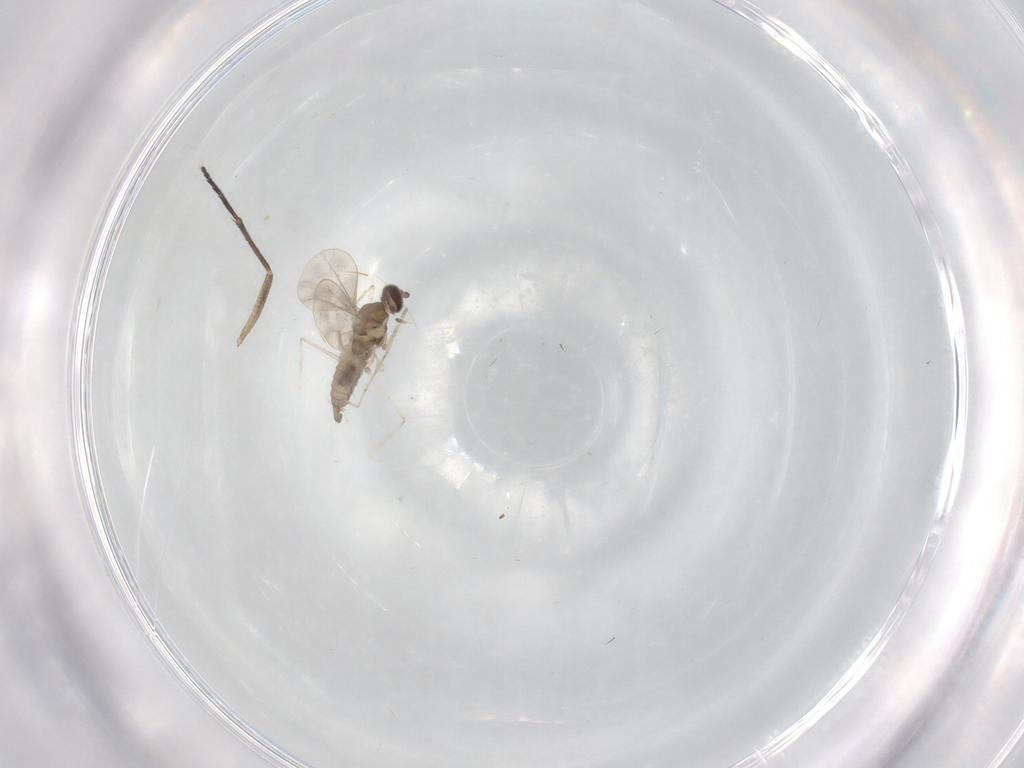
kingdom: Animalia
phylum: Arthropoda
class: Insecta
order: Diptera
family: Cecidomyiidae
